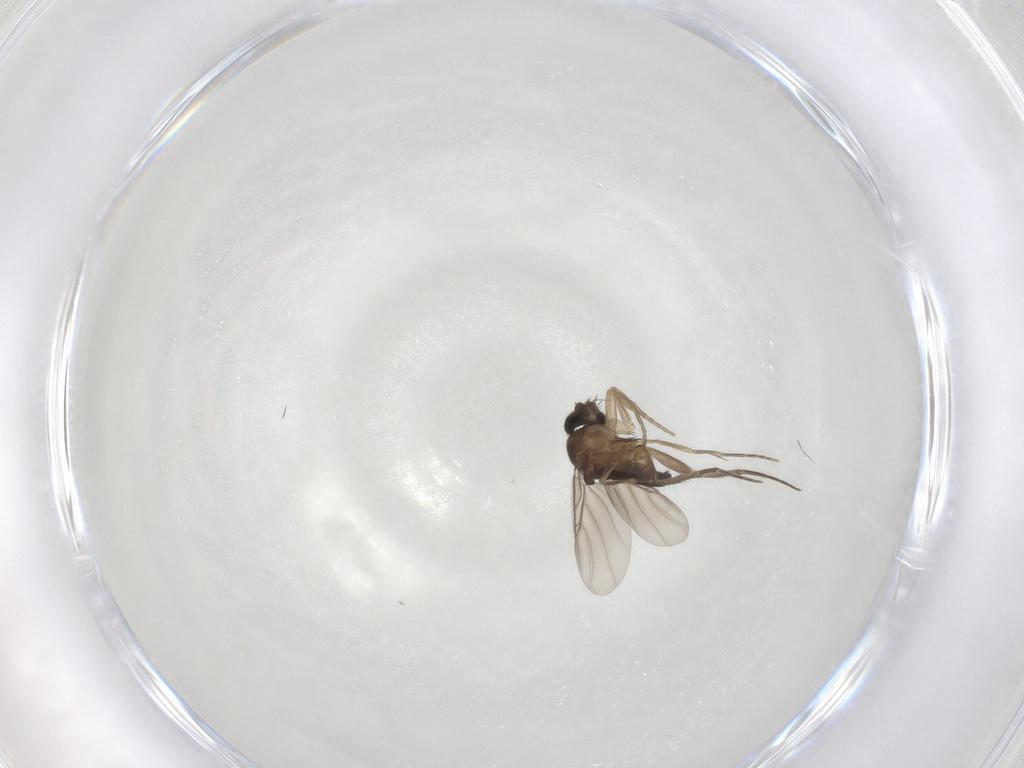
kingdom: Animalia
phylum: Arthropoda
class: Insecta
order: Diptera
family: Phoridae
